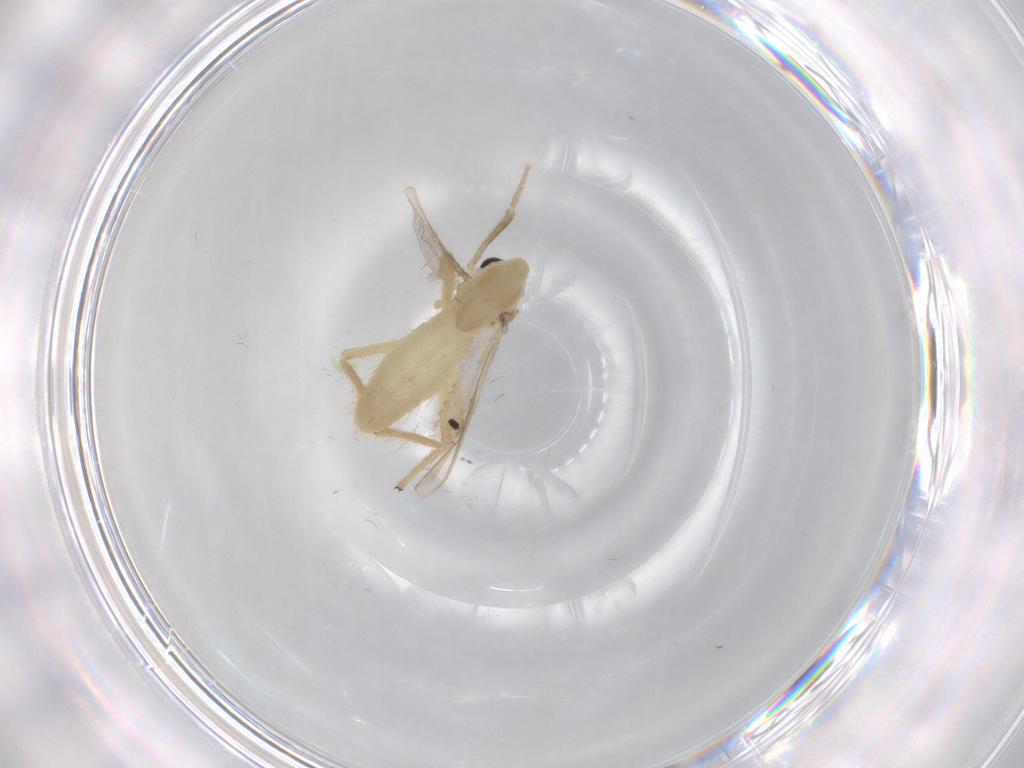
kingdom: Animalia
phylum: Arthropoda
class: Insecta
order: Diptera
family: Chironomidae
